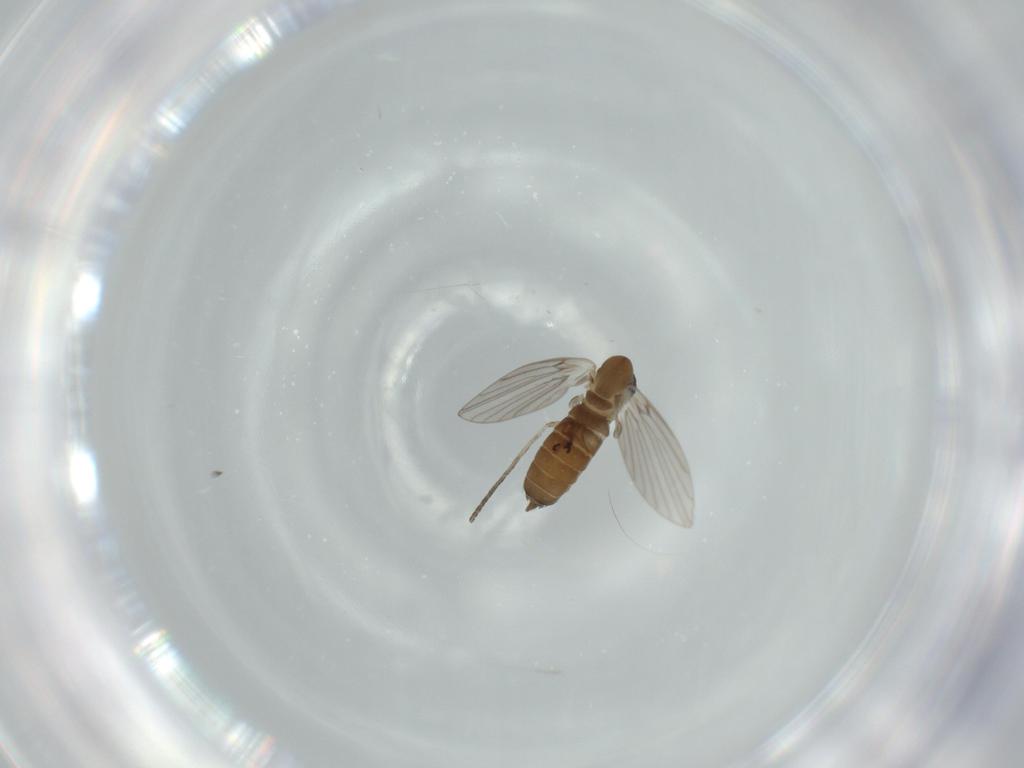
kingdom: Animalia
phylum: Arthropoda
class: Insecta
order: Diptera
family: Psychodidae
